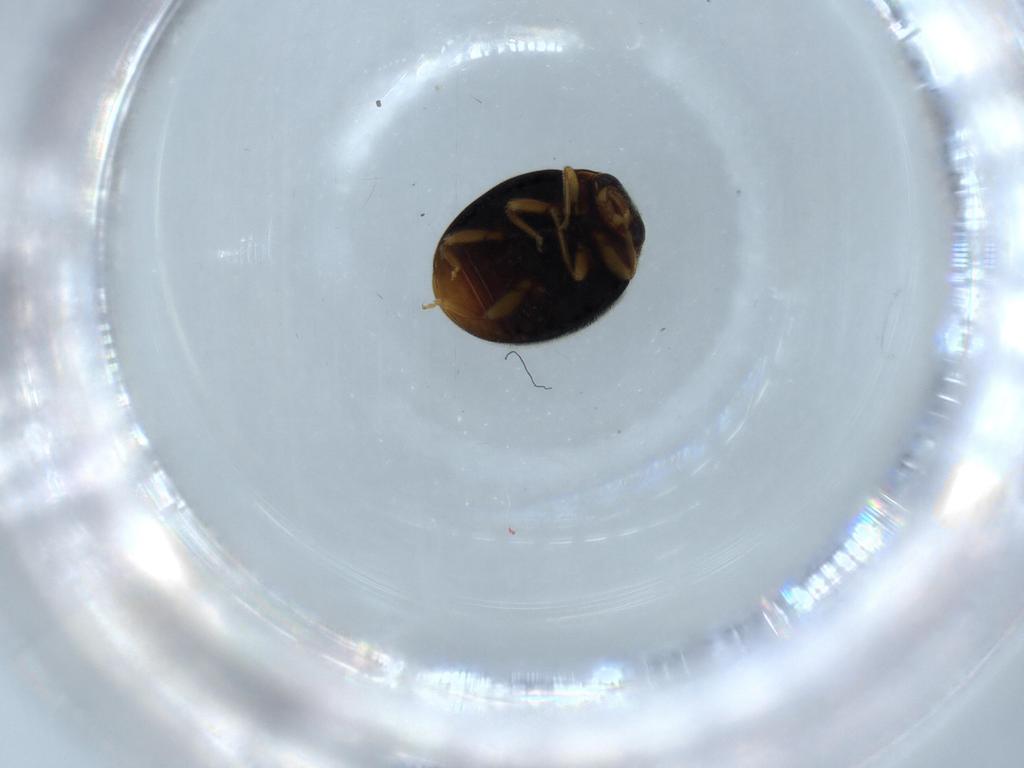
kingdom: Animalia
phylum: Arthropoda
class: Insecta
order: Coleoptera
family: Coccinellidae
